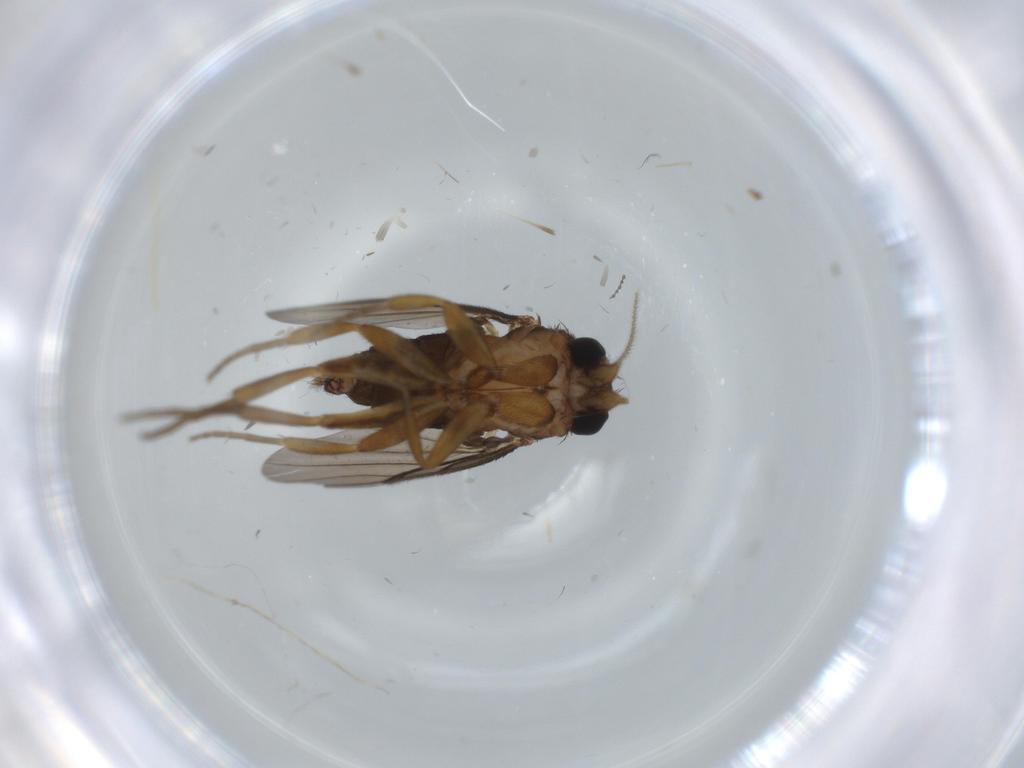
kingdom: Animalia
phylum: Arthropoda
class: Insecta
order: Diptera
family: Chironomidae
